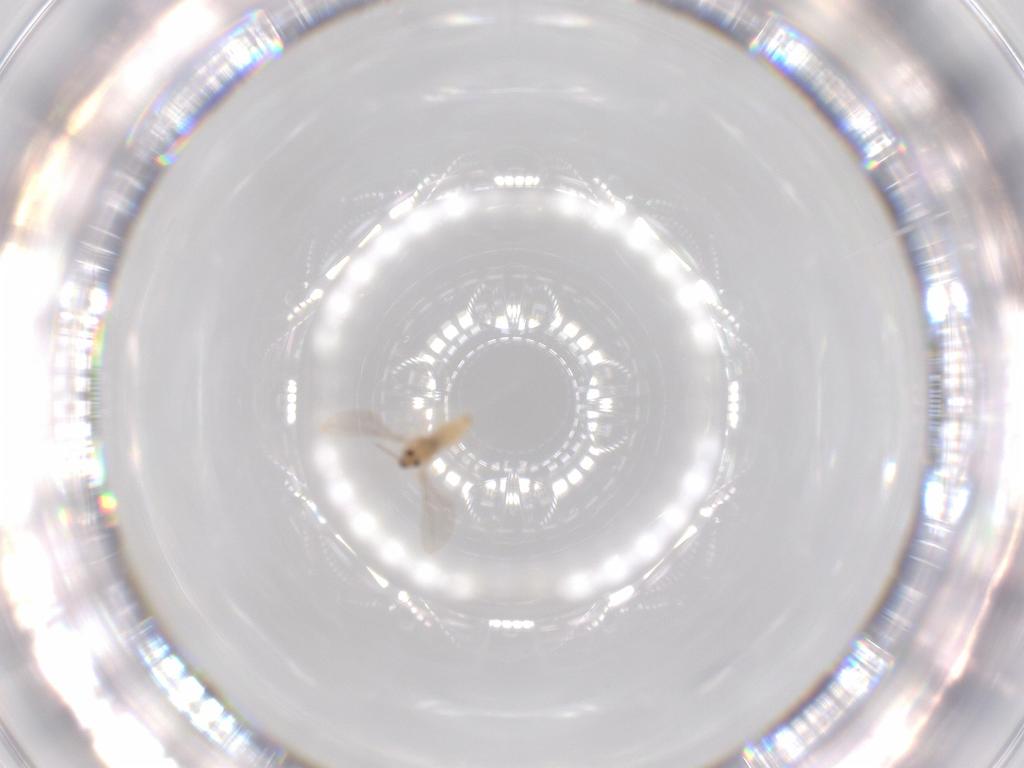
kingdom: Animalia
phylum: Arthropoda
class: Insecta
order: Diptera
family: Cecidomyiidae
